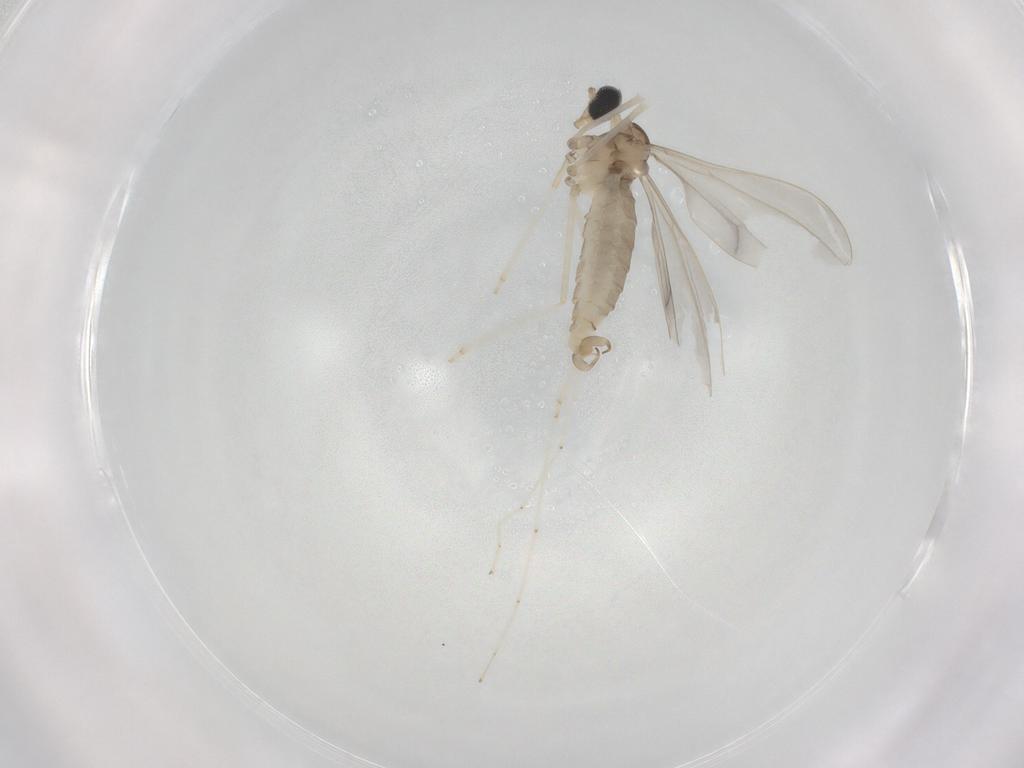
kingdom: Animalia
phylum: Arthropoda
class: Insecta
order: Diptera
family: Cecidomyiidae
